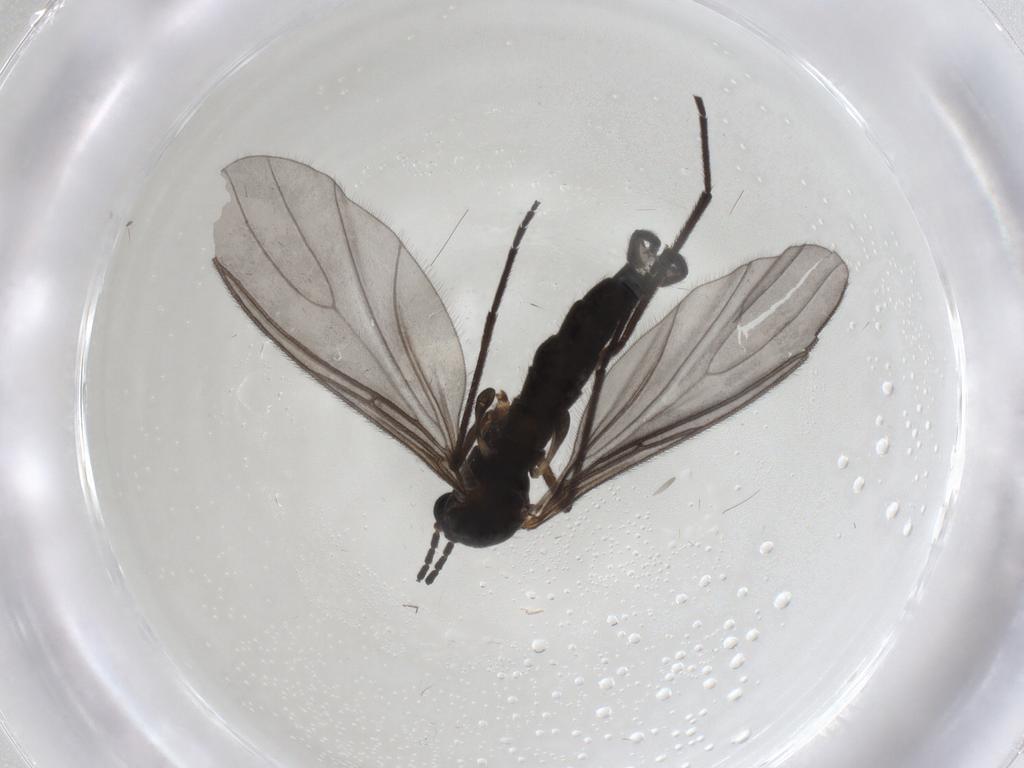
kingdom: Animalia
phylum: Arthropoda
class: Insecta
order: Diptera
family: Sciaridae
